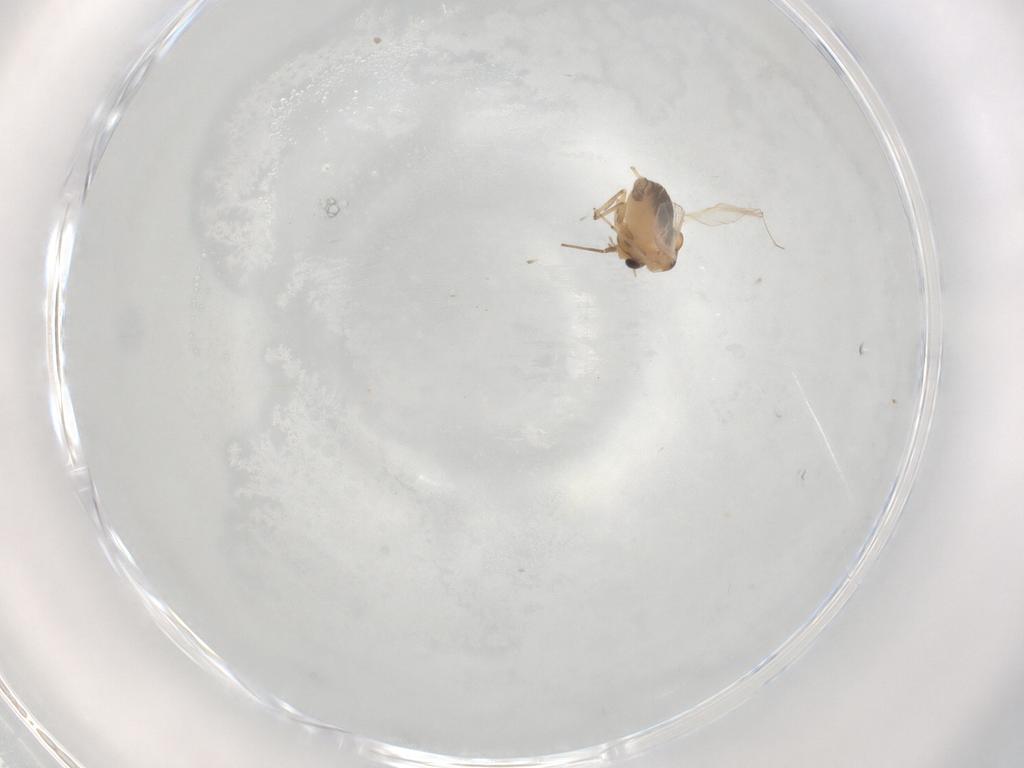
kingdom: Animalia
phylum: Arthropoda
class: Insecta
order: Diptera
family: Chironomidae
